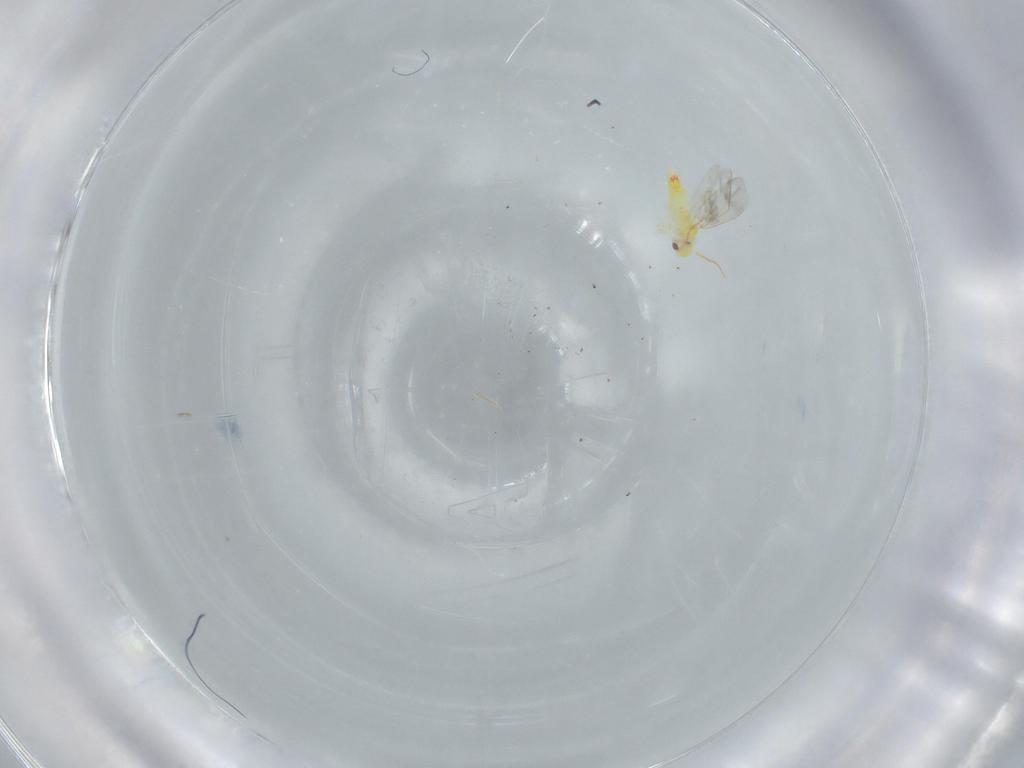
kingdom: Animalia
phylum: Arthropoda
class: Insecta
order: Hemiptera
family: Aleyrodidae
